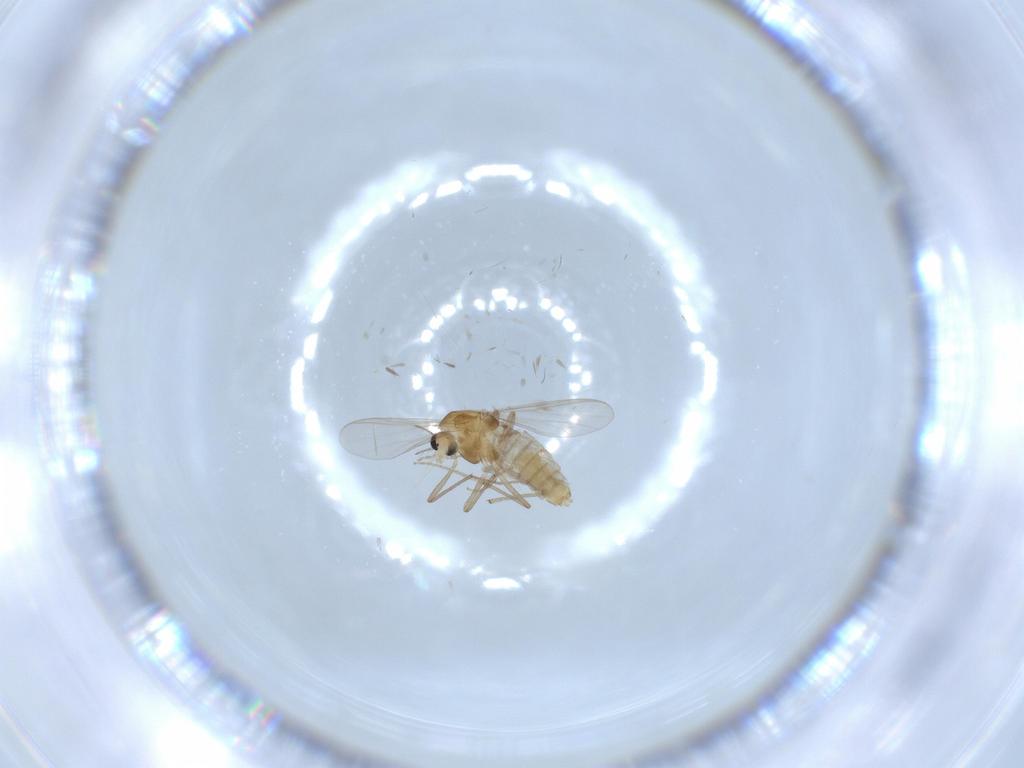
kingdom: Animalia
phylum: Arthropoda
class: Insecta
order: Diptera
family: Chironomidae
